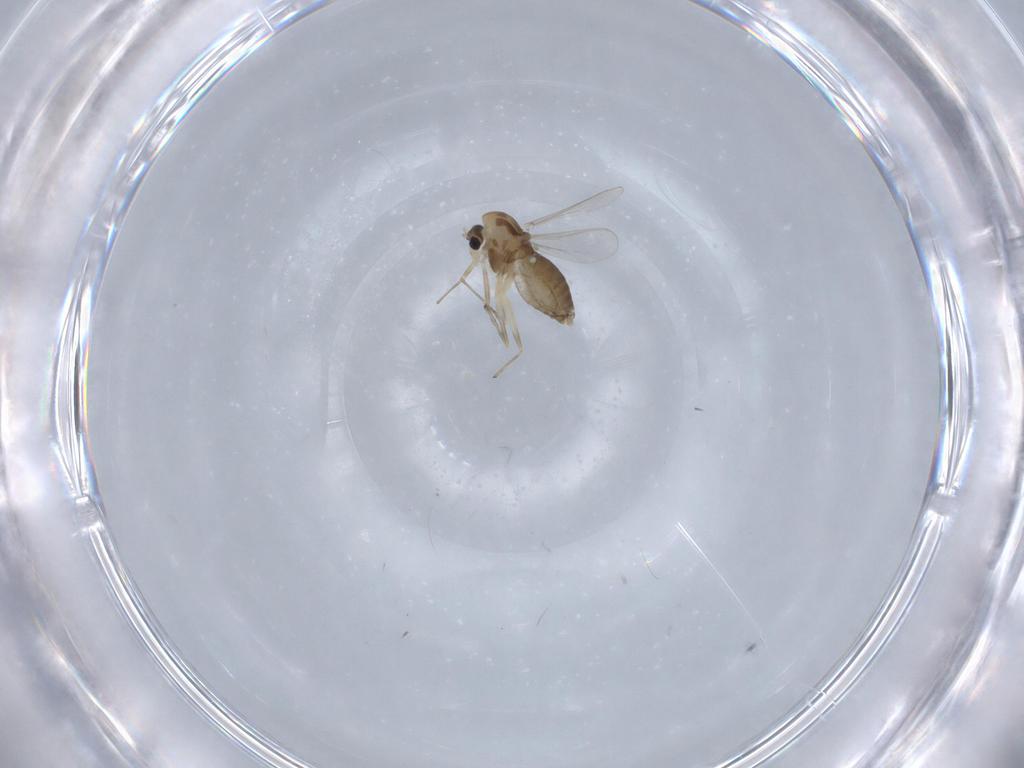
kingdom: Animalia
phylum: Arthropoda
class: Insecta
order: Diptera
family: Chironomidae
